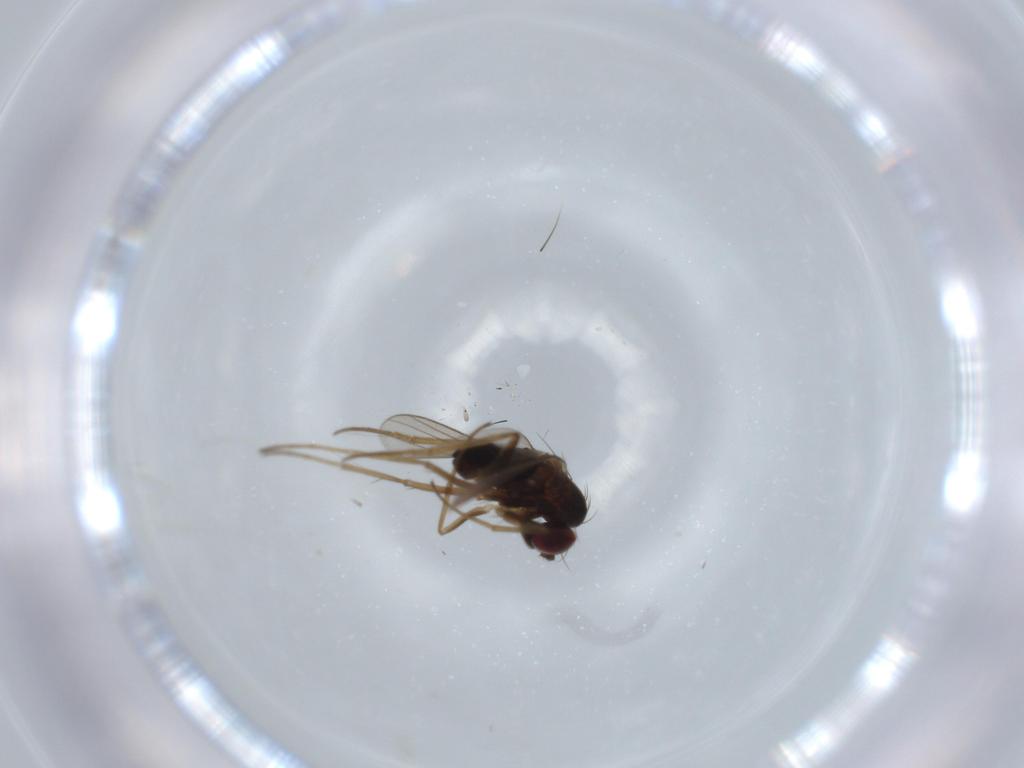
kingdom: Animalia
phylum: Arthropoda
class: Insecta
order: Diptera
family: Dolichopodidae
